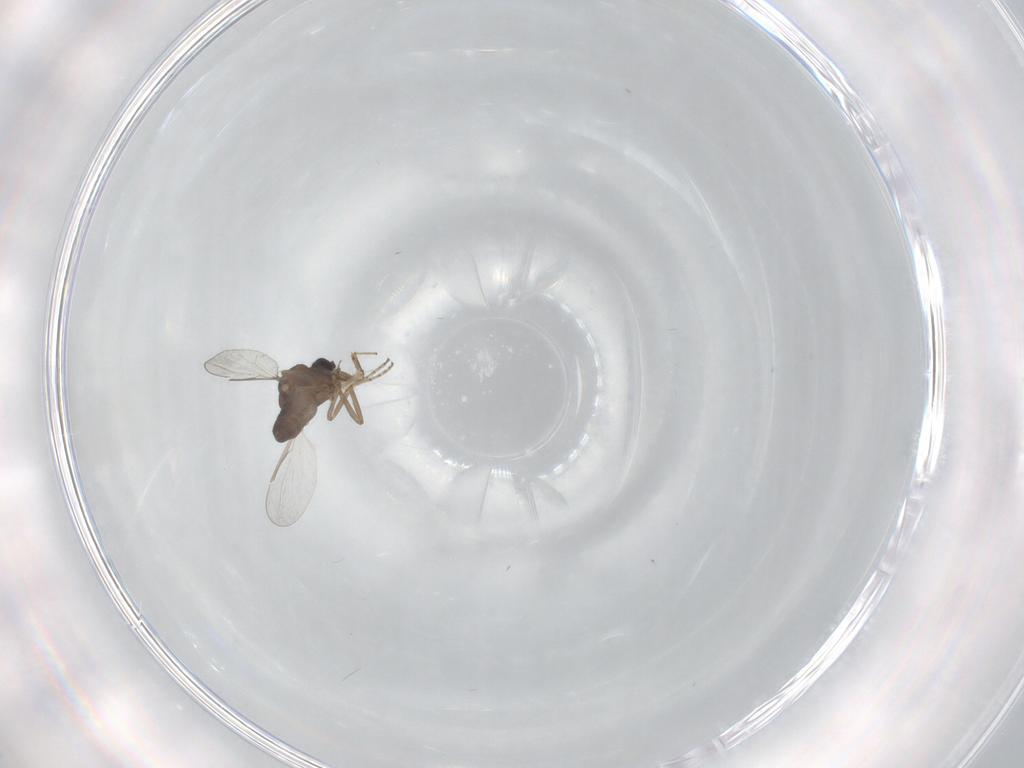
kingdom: Animalia
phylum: Arthropoda
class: Insecta
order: Diptera
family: Ceratopogonidae
